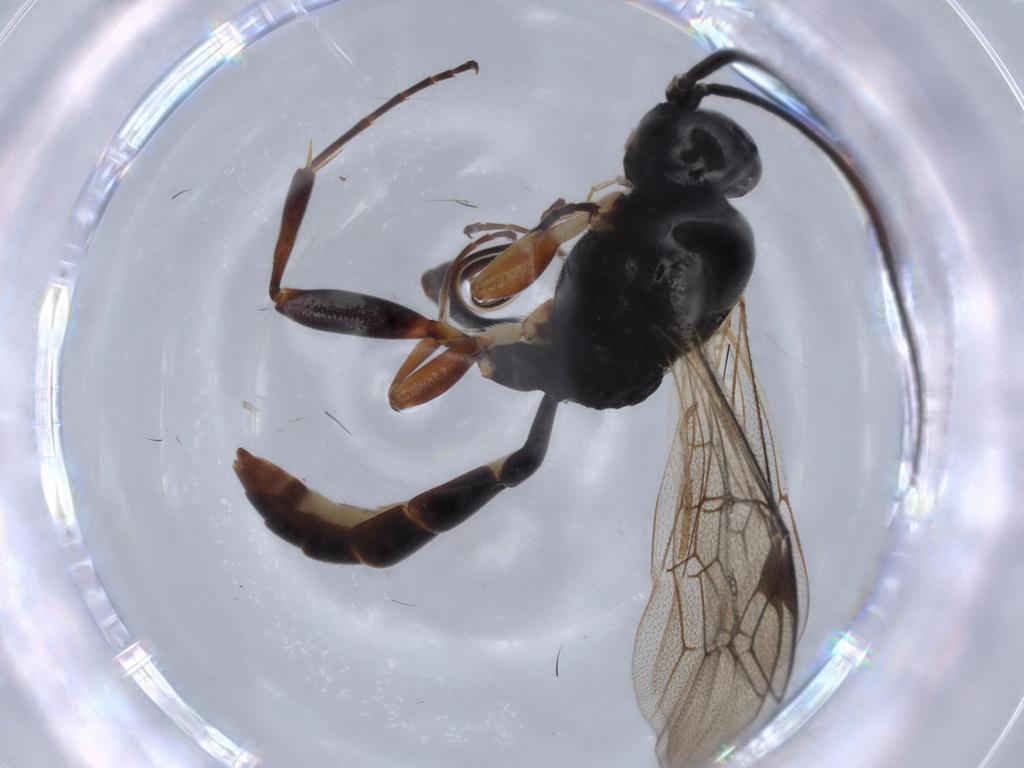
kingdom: Animalia
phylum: Arthropoda
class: Insecta
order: Hymenoptera
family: Ichneumonidae
